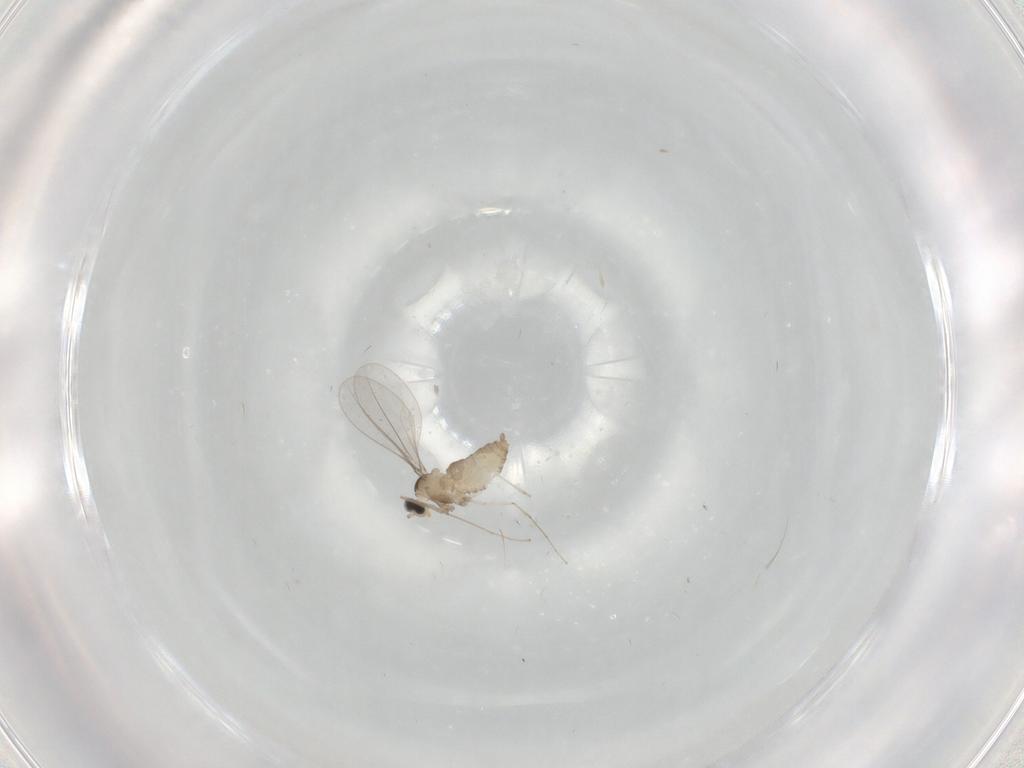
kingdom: Animalia
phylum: Arthropoda
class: Insecta
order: Diptera
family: Cecidomyiidae
